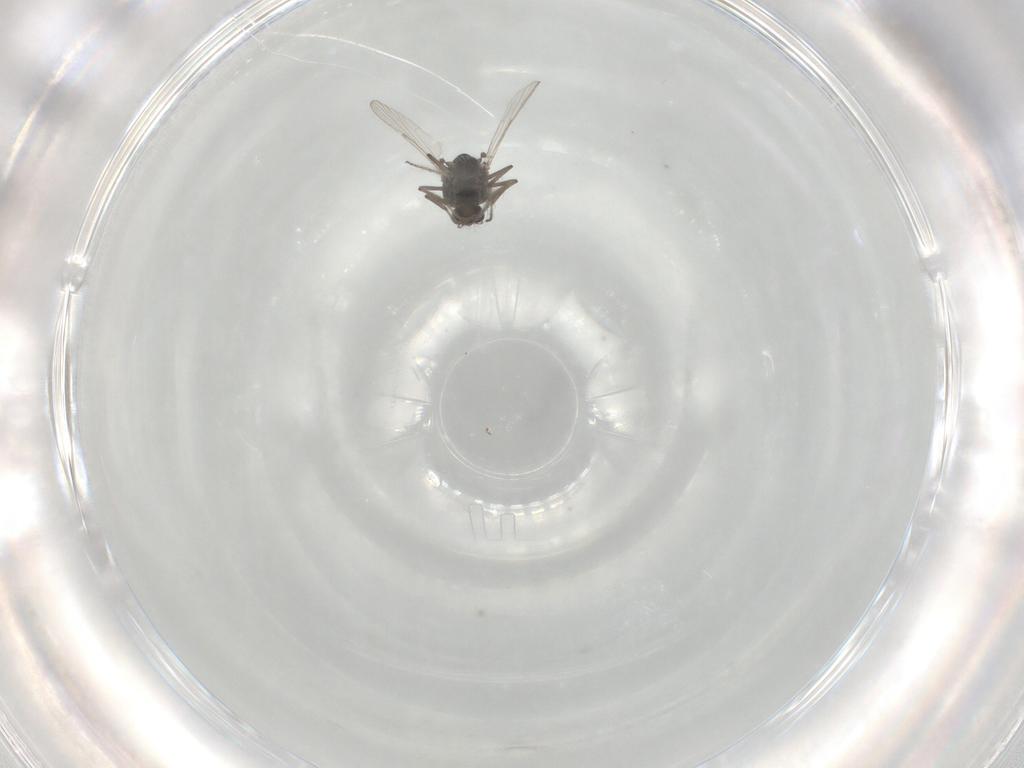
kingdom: Animalia
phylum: Arthropoda
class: Insecta
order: Diptera
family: Ceratopogonidae
